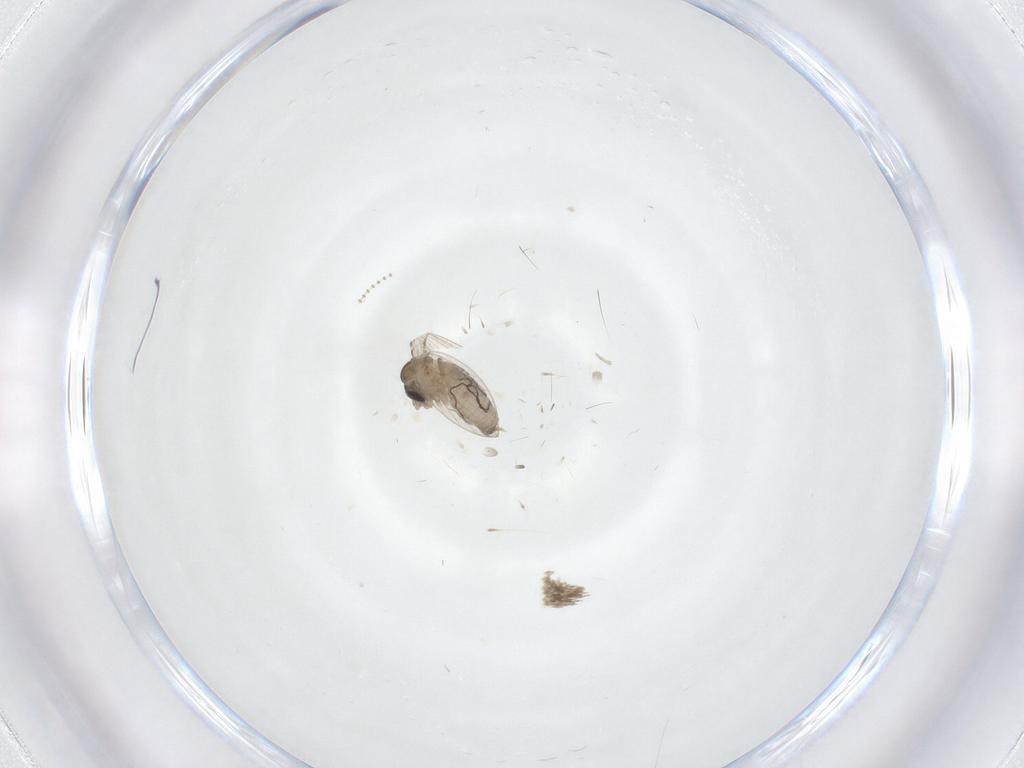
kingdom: Animalia
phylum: Arthropoda
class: Insecta
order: Diptera
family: Psychodidae
